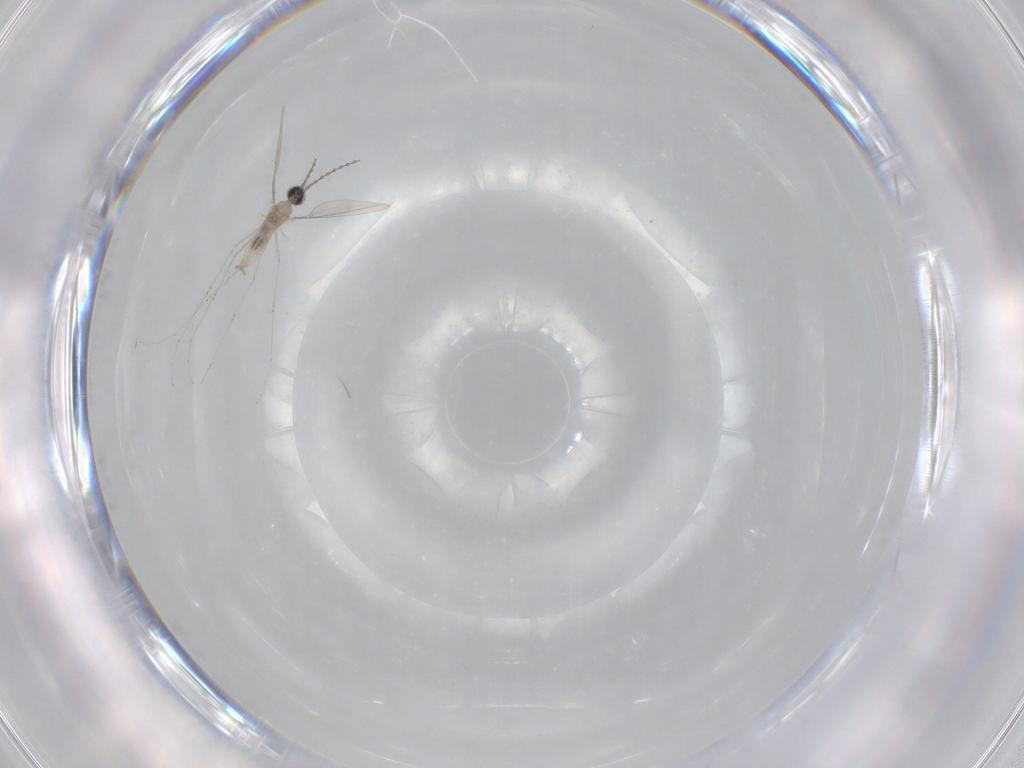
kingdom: Animalia
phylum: Arthropoda
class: Insecta
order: Diptera
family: Cecidomyiidae
